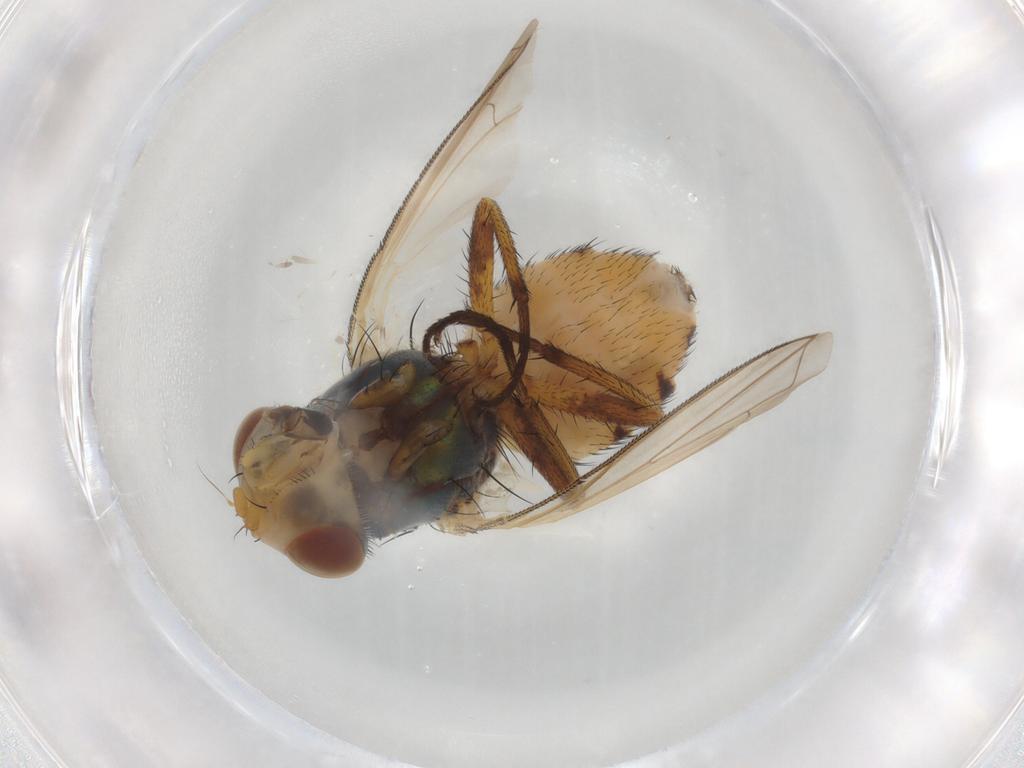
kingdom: Animalia
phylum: Arthropoda
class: Insecta
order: Diptera
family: Calliphoridae
